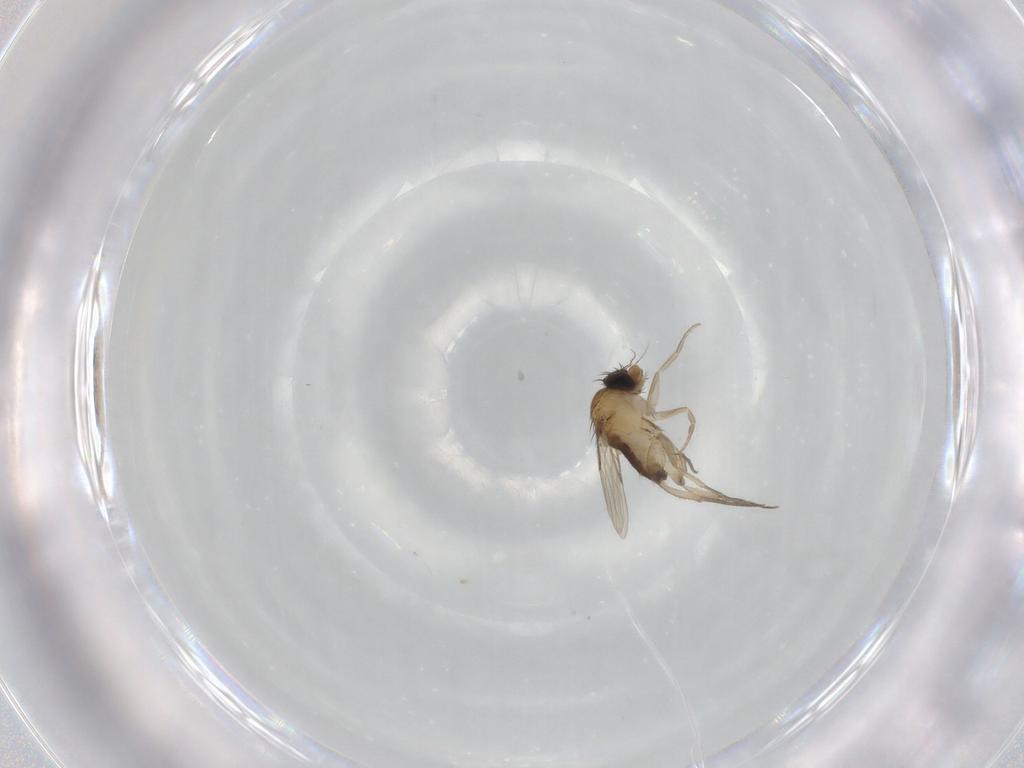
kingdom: Animalia
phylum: Arthropoda
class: Insecta
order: Diptera
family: Phoridae
